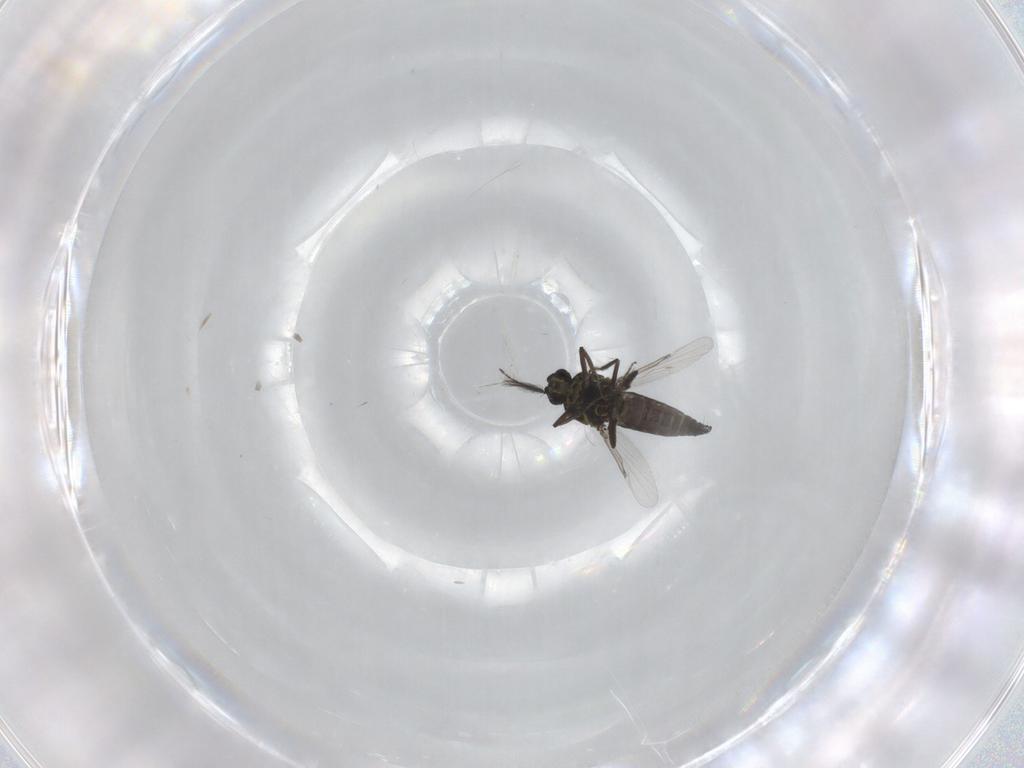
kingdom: Animalia
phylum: Arthropoda
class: Insecta
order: Diptera
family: Ceratopogonidae
